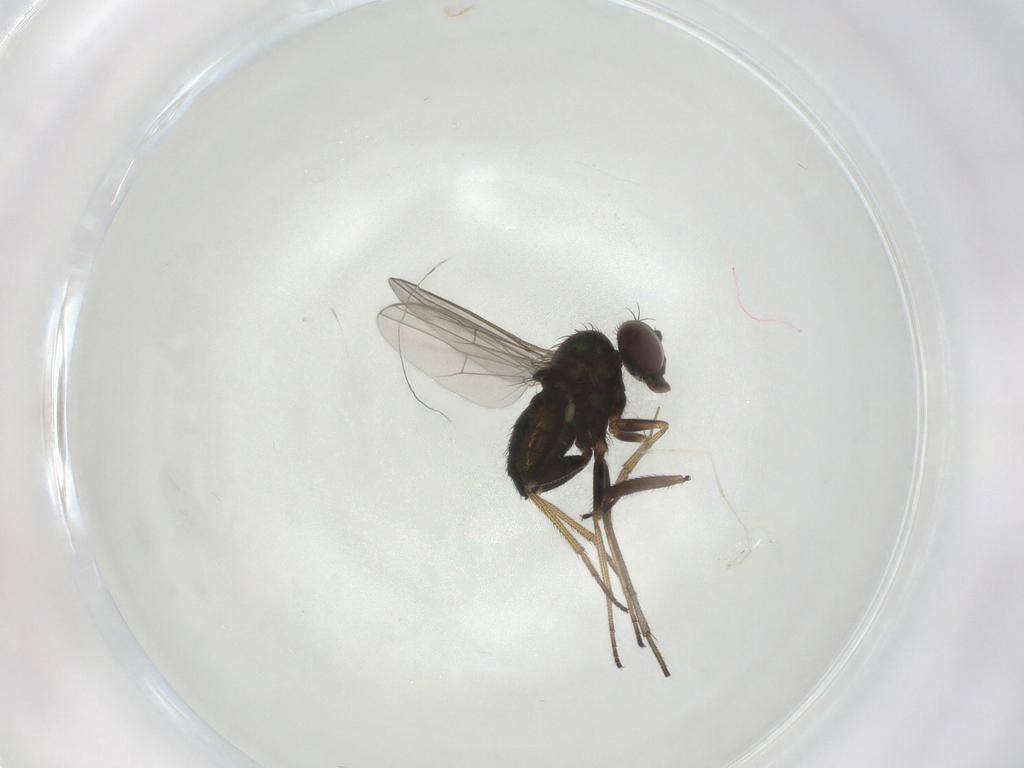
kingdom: Animalia
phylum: Arthropoda
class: Insecta
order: Diptera
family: Dolichopodidae
